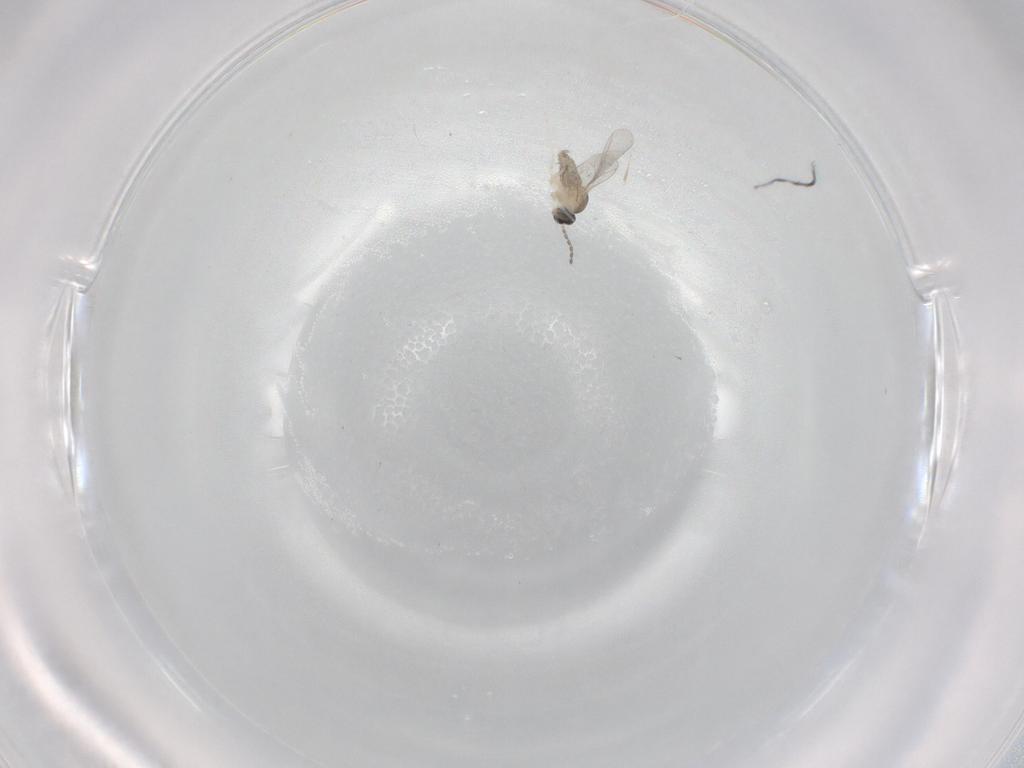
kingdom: Animalia
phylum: Arthropoda
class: Insecta
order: Diptera
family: Cecidomyiidae
